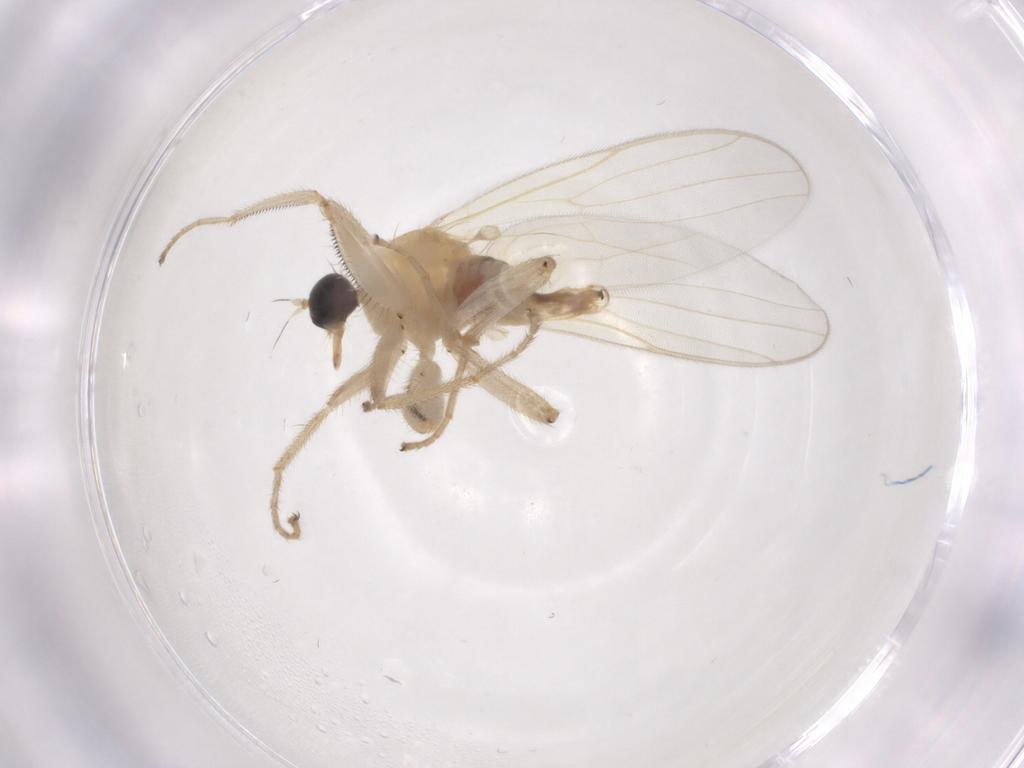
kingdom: Animalia
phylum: Arthropoda
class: Insecta
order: Diptera
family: Hybotidae
